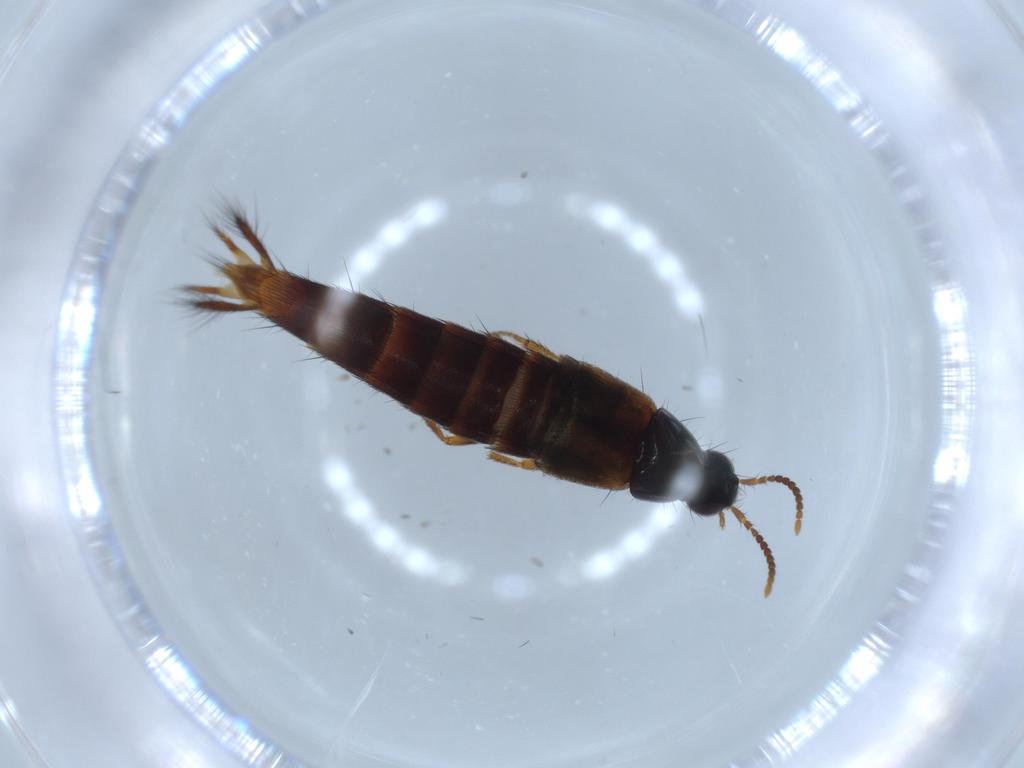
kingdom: Animalia
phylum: Arthropoda
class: Insecta
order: Coleoptera
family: Staphylinidae
